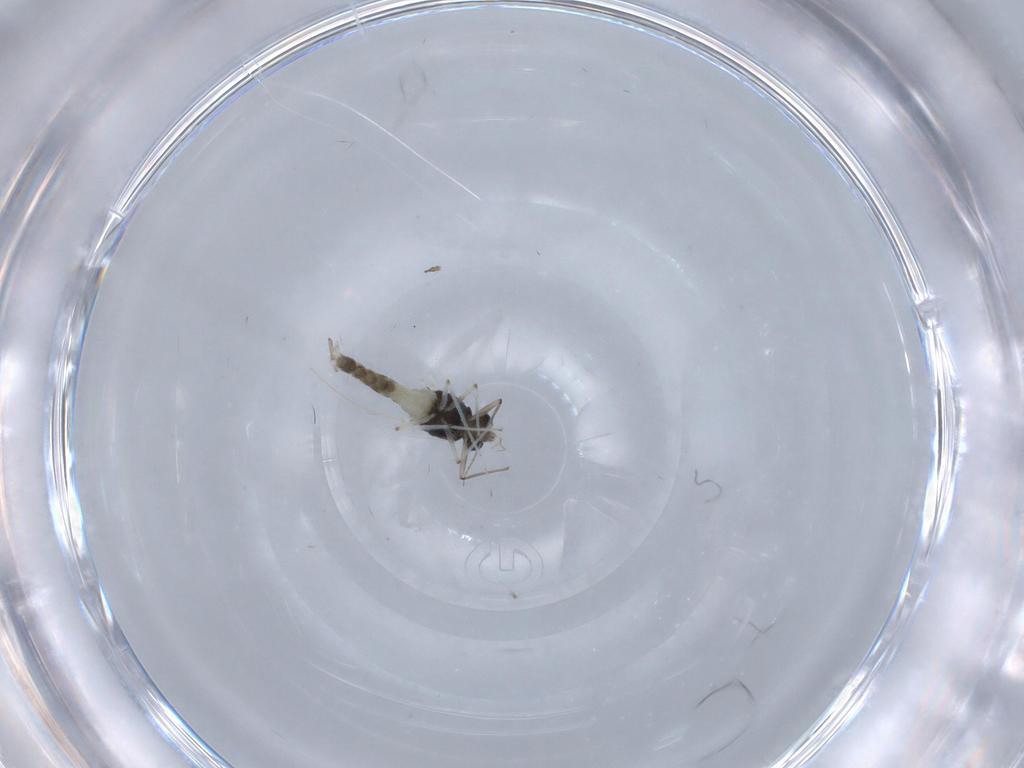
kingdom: Animalia
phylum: Arthropoda
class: Insecta
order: Diptera
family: Chironomidae
